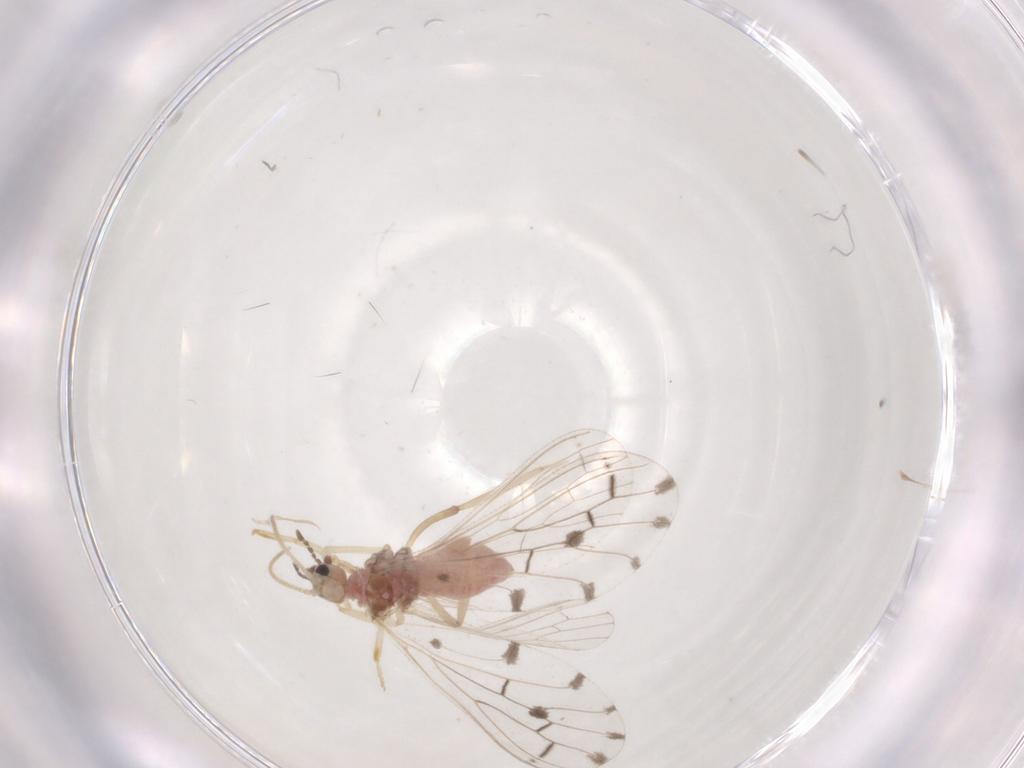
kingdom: Animalia
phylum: Arthropoda
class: Insecta
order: Neuroptera
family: Coniopterygidae
